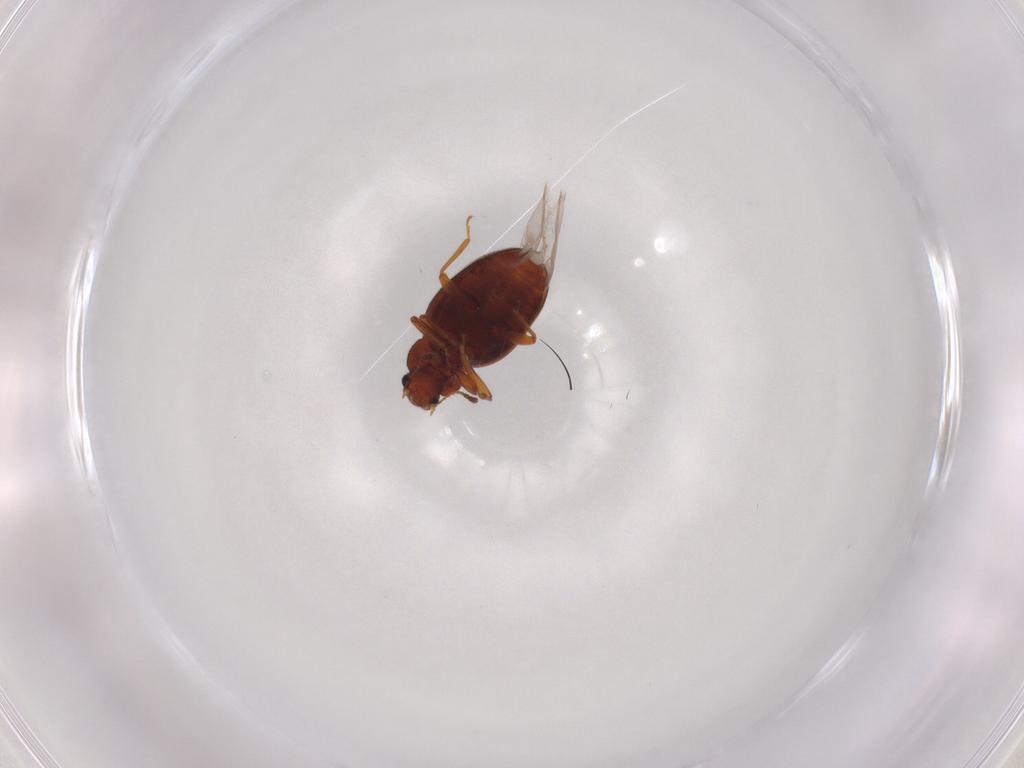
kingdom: Animalia
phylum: Arthropoda
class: Insecta
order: Coleoptera
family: Latridiidae
